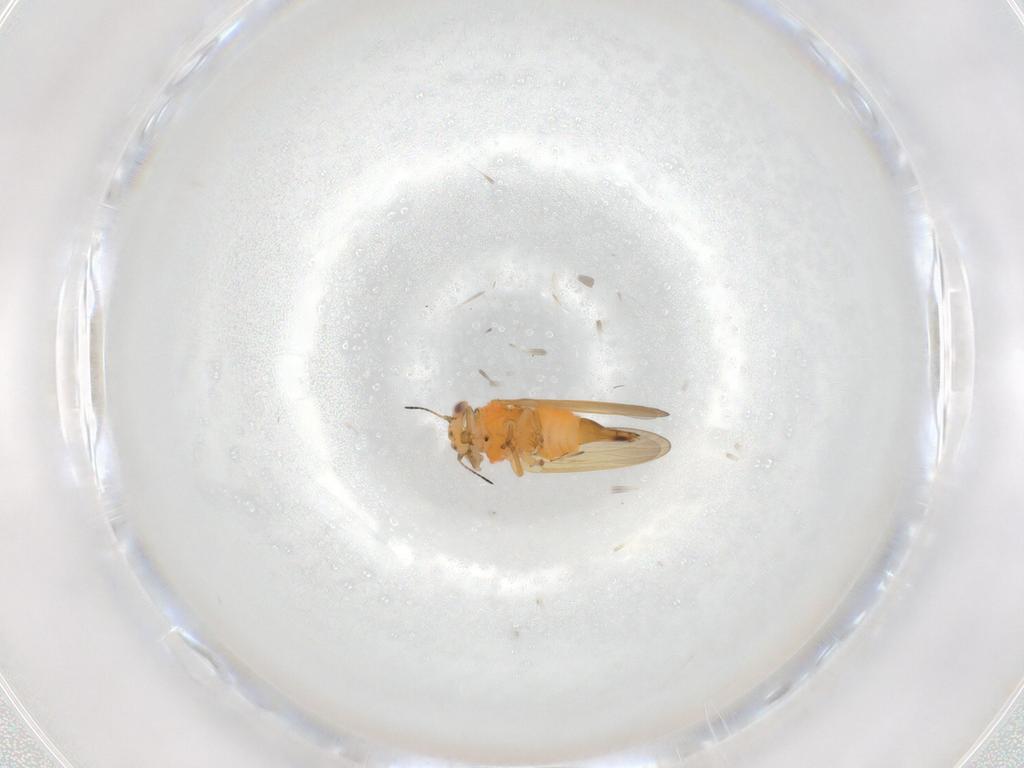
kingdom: Animalia
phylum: Arthropoda
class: Insecta
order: Hemiptera
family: Aphalaridae
